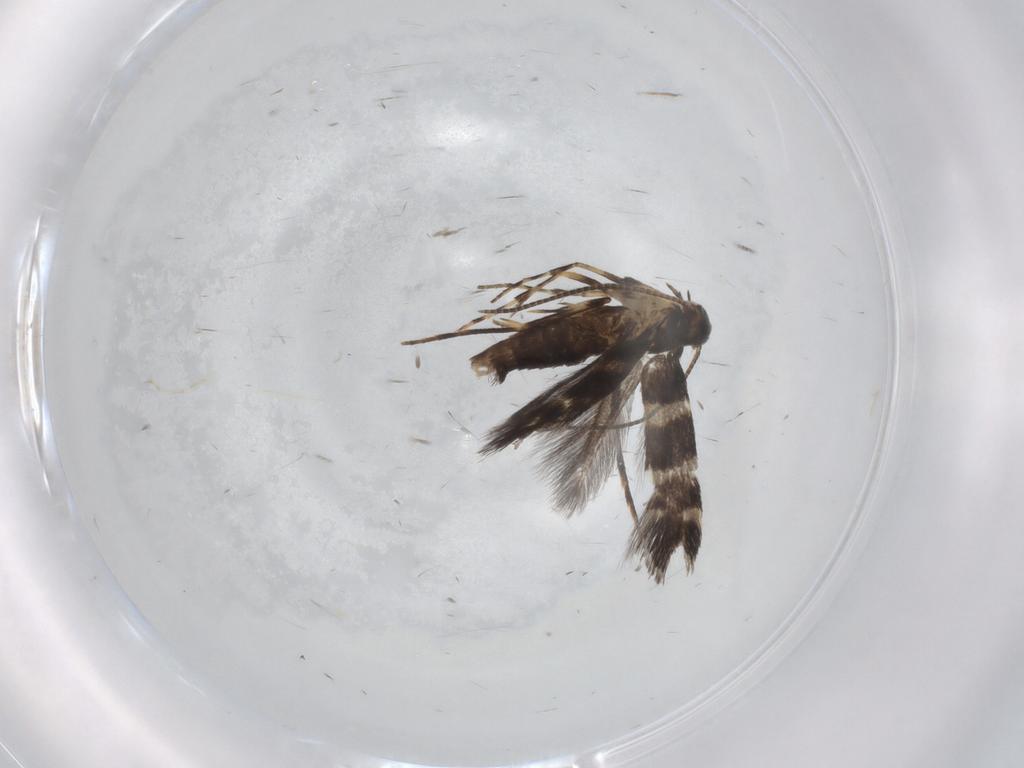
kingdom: Animalia
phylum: Arthropoda
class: Insecta
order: Lepidoptera
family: Gracillariidae
